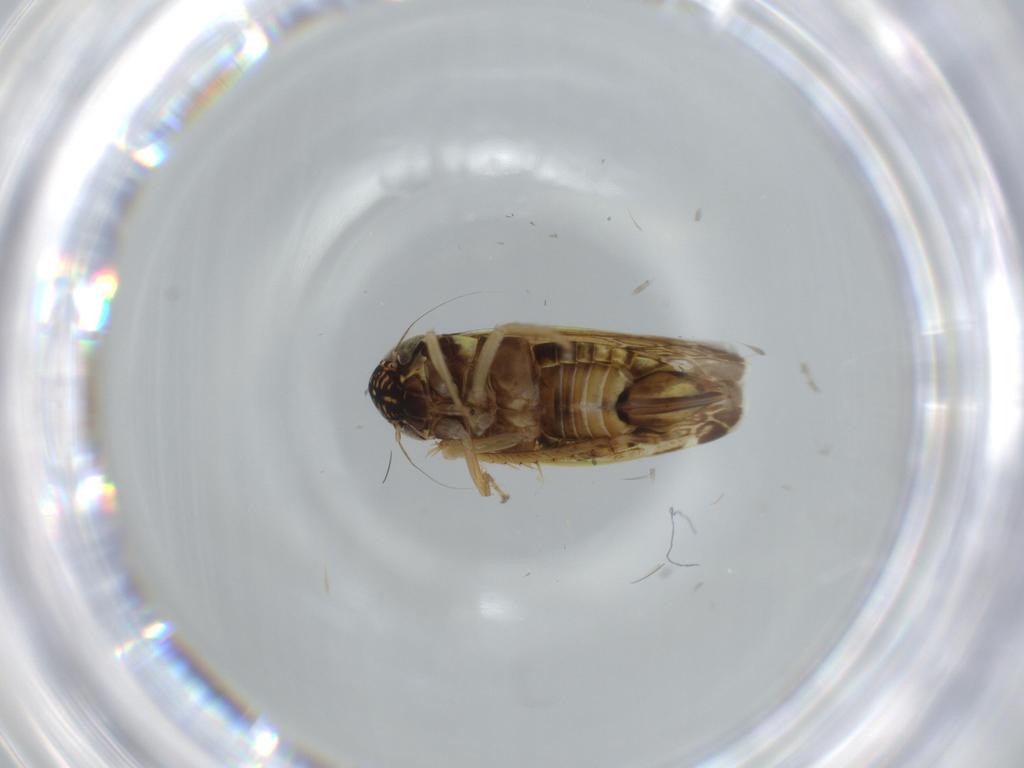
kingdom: Animalia
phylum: Arthropoda
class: Insecta
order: Hemiptera
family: Cicadellidae
